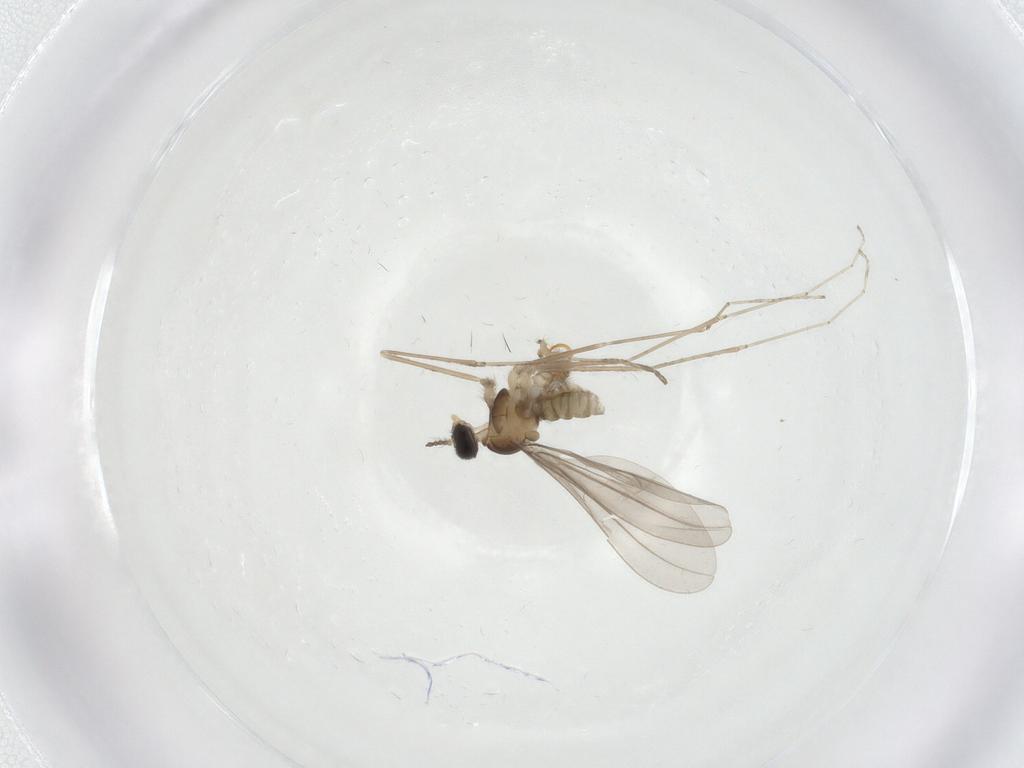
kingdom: Animalia
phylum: Arthropoda
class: Insecta
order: Diptera
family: Cecidomyiidae
